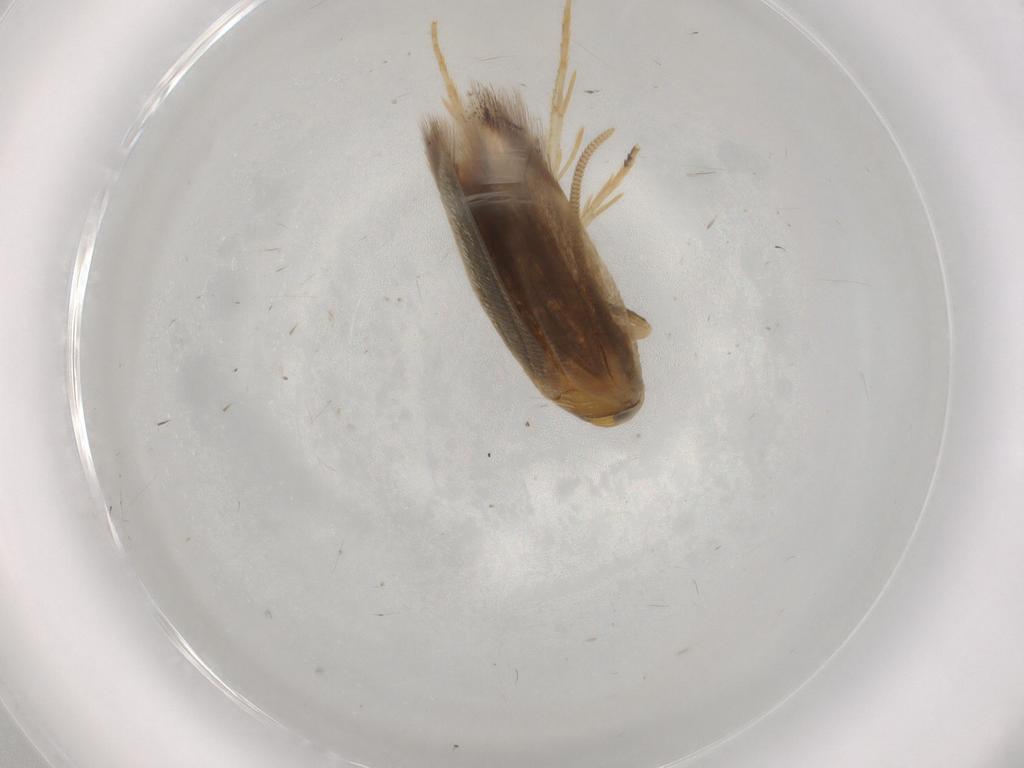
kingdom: Animalia
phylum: Arthropoda
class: Insecta
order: Lepidoptera
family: Opostegidae
